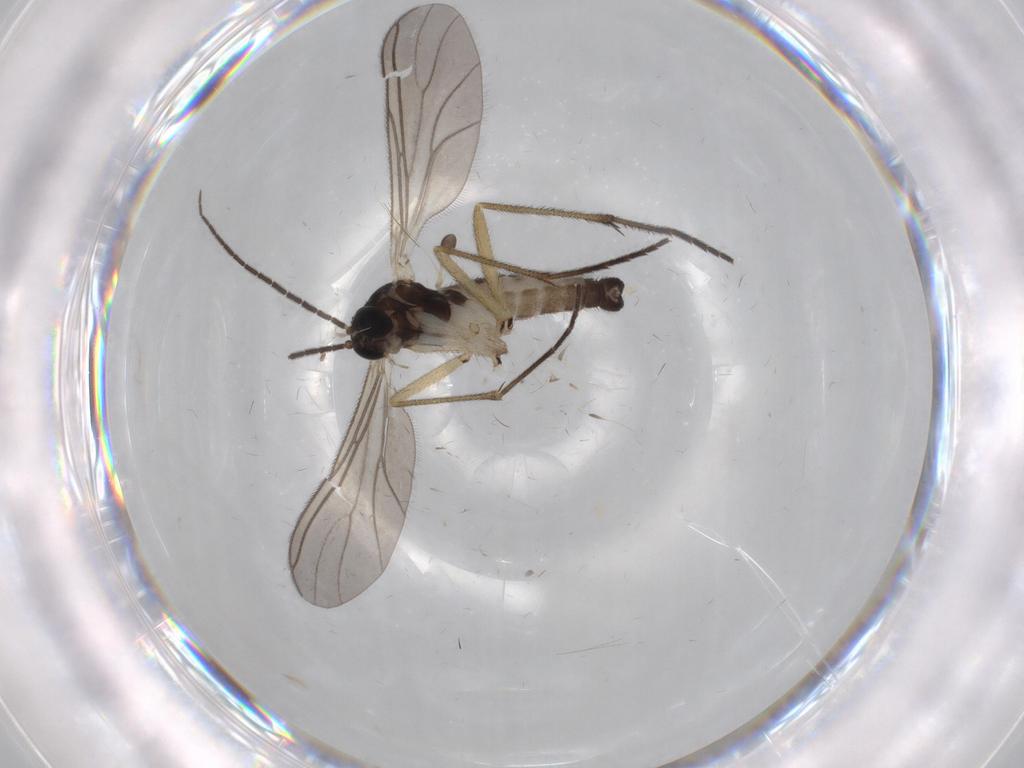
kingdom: Animalia
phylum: Arthropoda
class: Insecta
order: Diptera
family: Sciaridae
